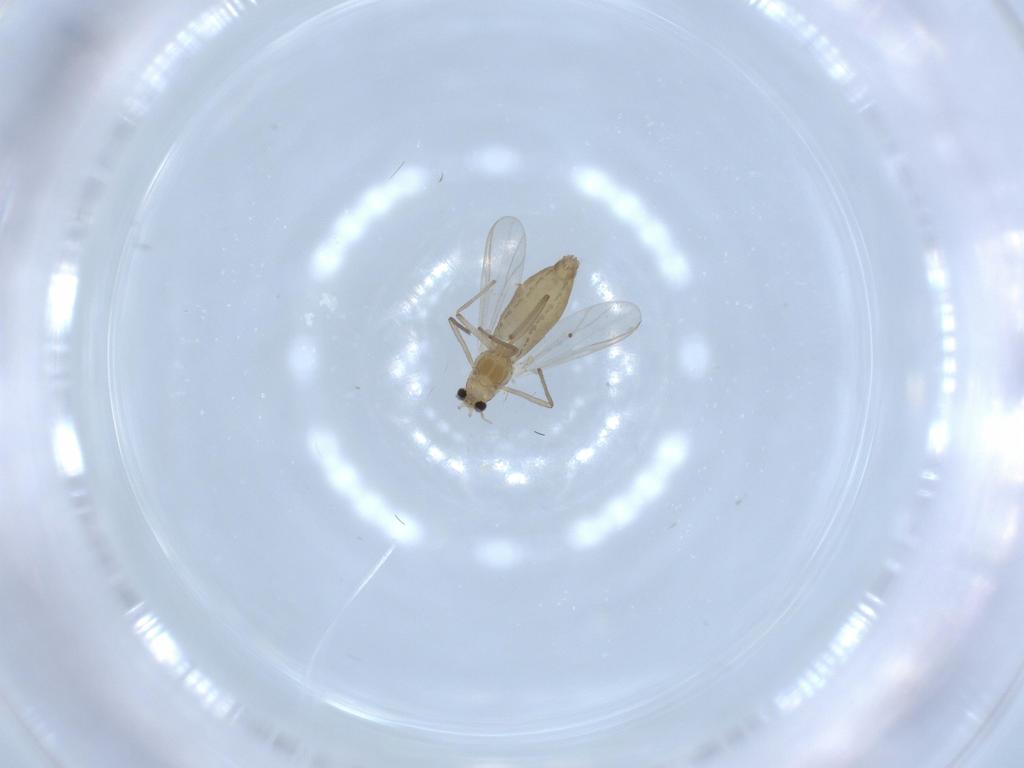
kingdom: Animalia
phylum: Arthropoda
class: Insecta
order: Diptera
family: Chironomidae
